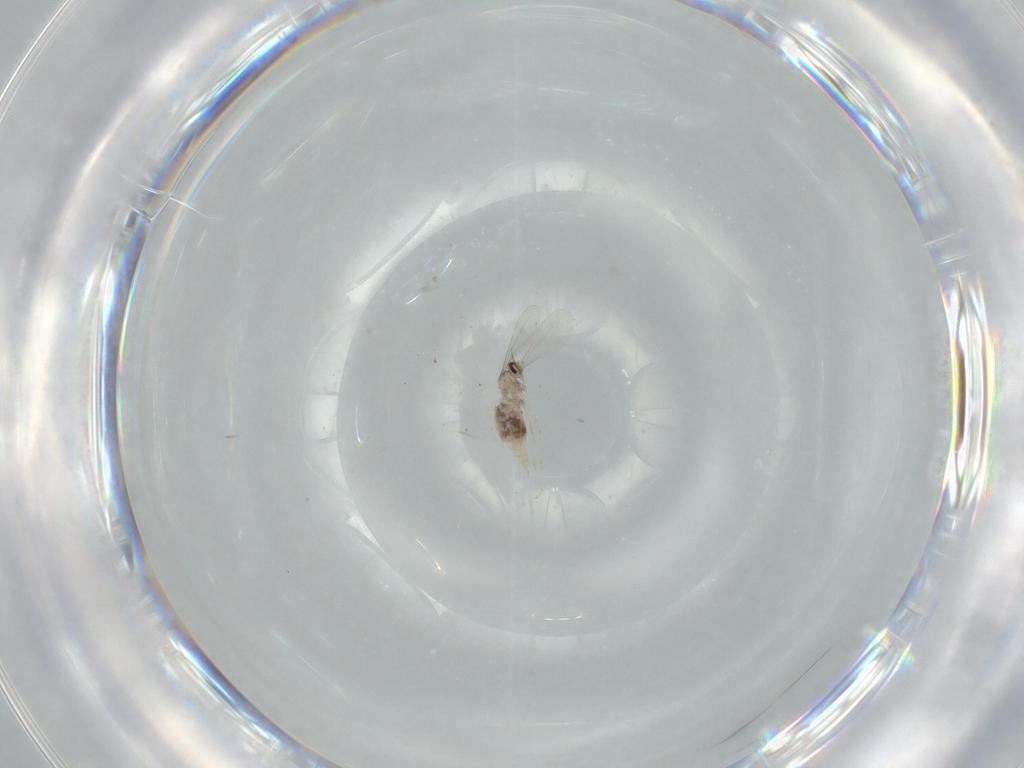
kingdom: Animalia
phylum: Arthropoda
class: Insecta
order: Diptera
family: Cecidomyiidae
